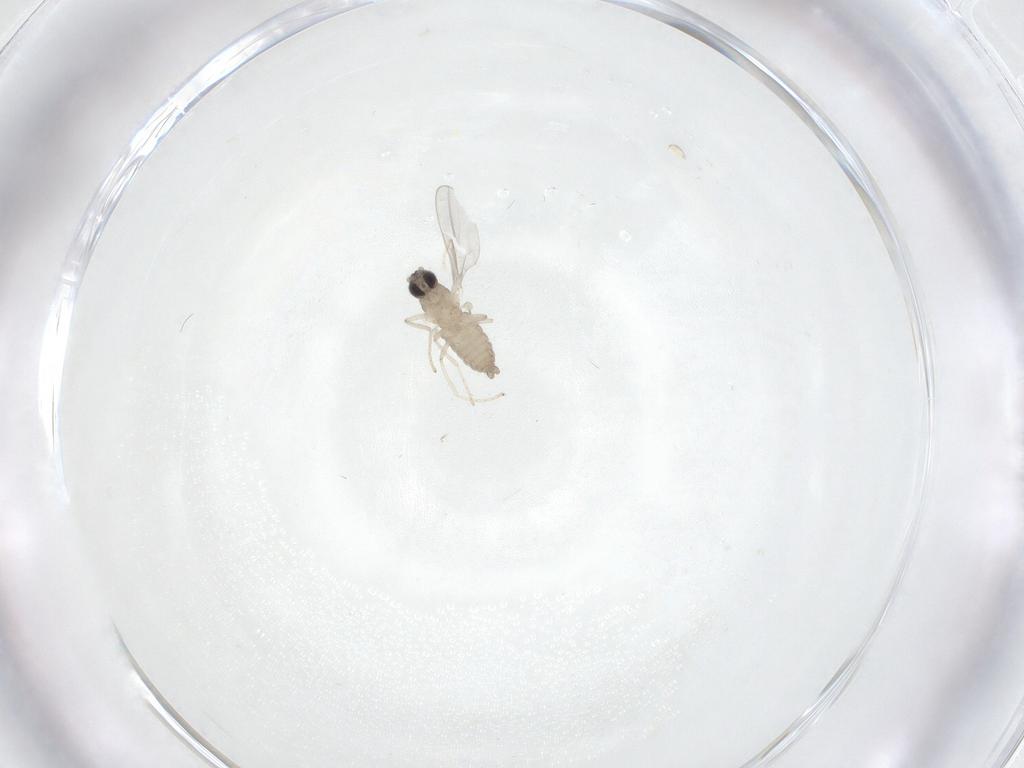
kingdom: Animalia
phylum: Arthropoda
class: Insecta
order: Diptera
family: Cecidomyiidae
